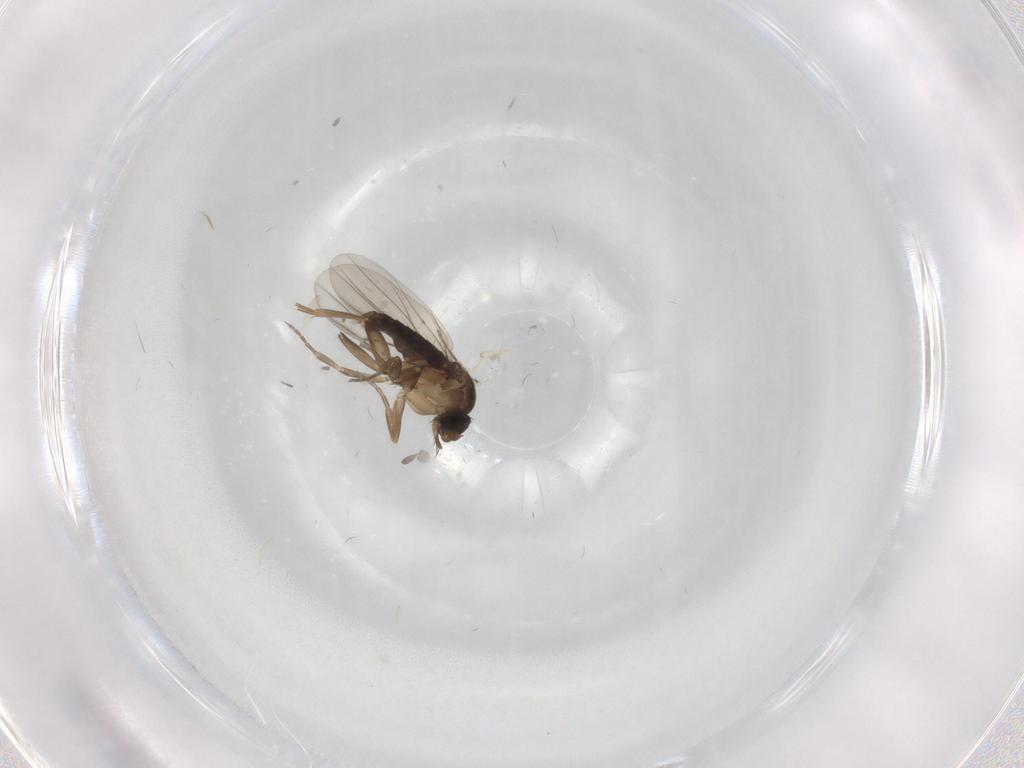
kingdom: Animalia
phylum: Arthropoda
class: Insecta
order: Diptera
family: Phoridae
